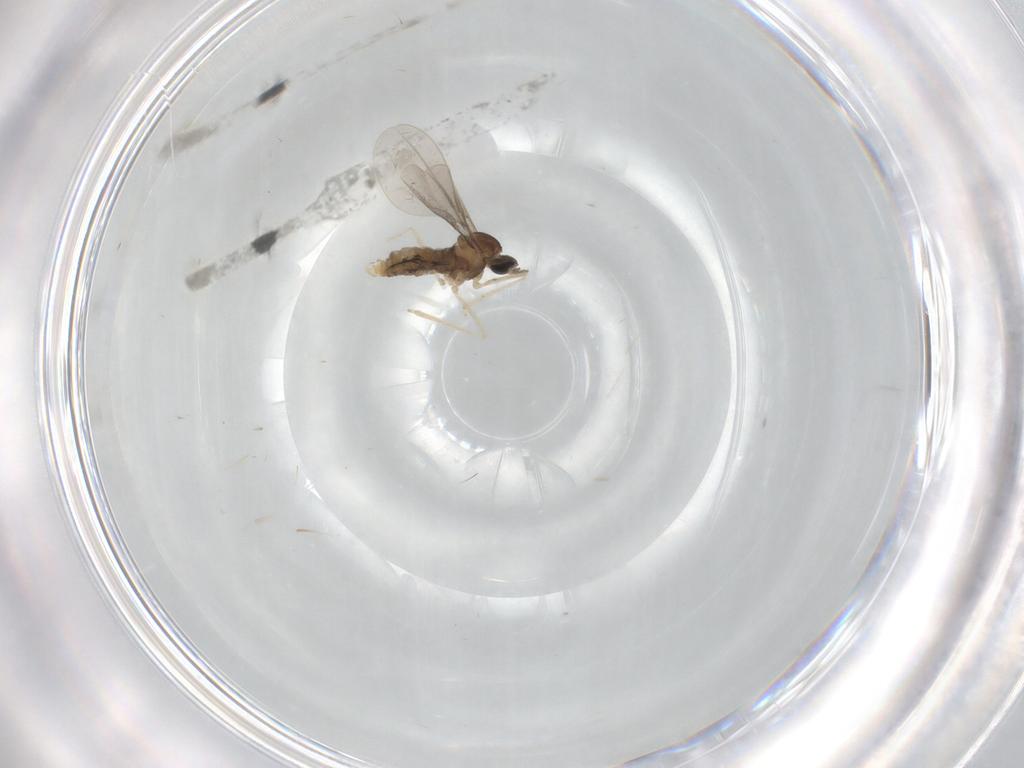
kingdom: Animalia
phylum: Arthropoda
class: Insecta
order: Diptera
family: Cecidomyiidae
